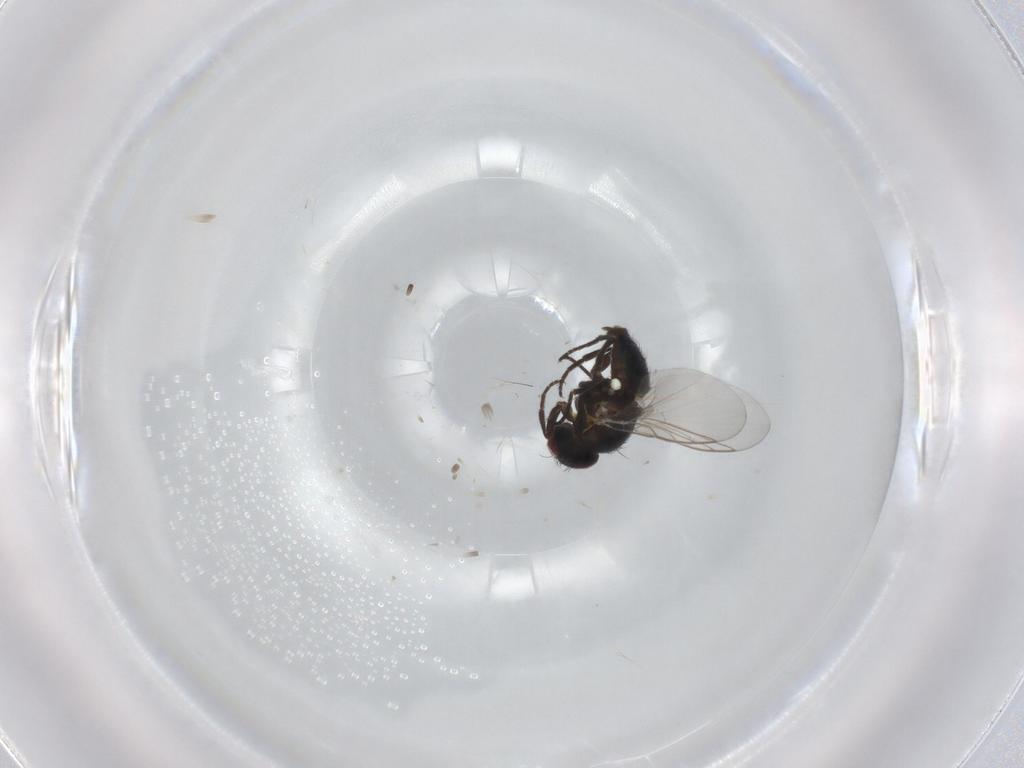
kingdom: Animalia
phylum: Arthropoda
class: Insecta
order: Diptera
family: Agromyzidae
